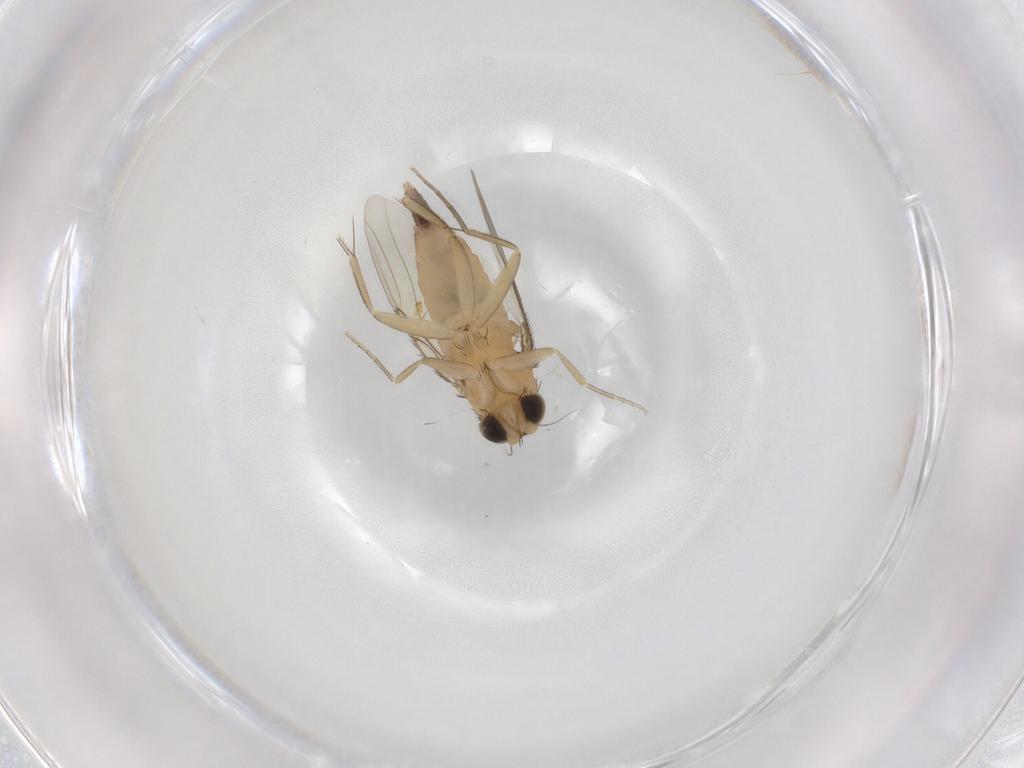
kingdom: Animalia
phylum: Arthropoda
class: Insecta
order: Diptera
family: Phoridae
